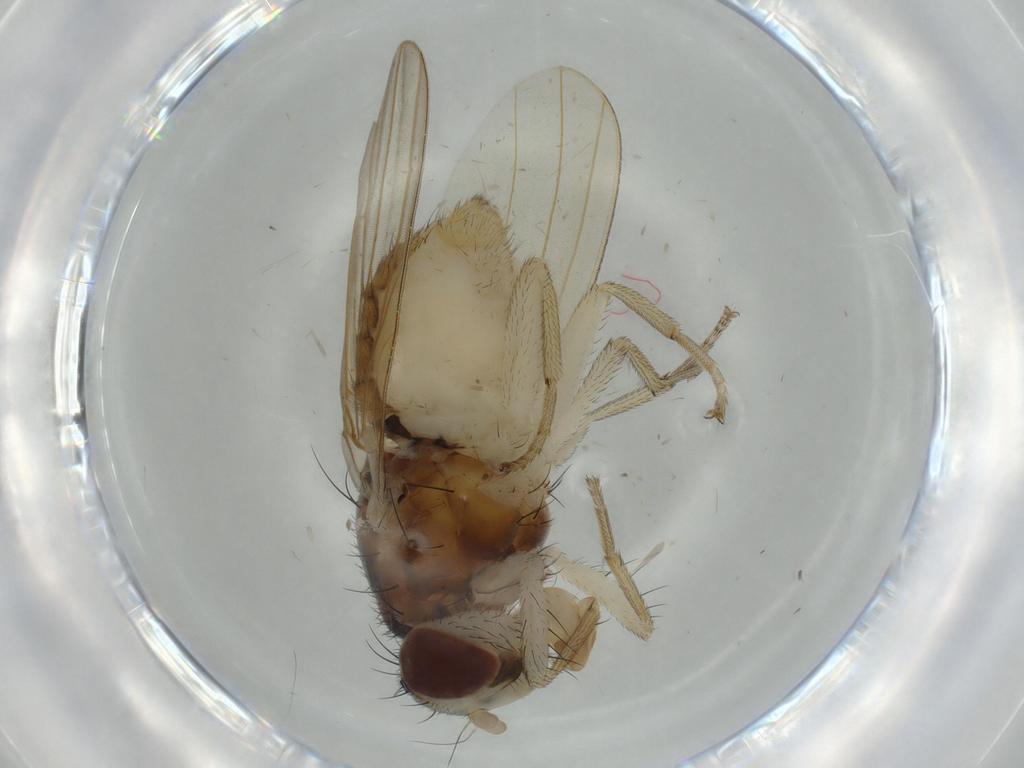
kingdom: Animalia
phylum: Arthropoda
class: Insecta
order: Diptera
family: Lauxaniidae
